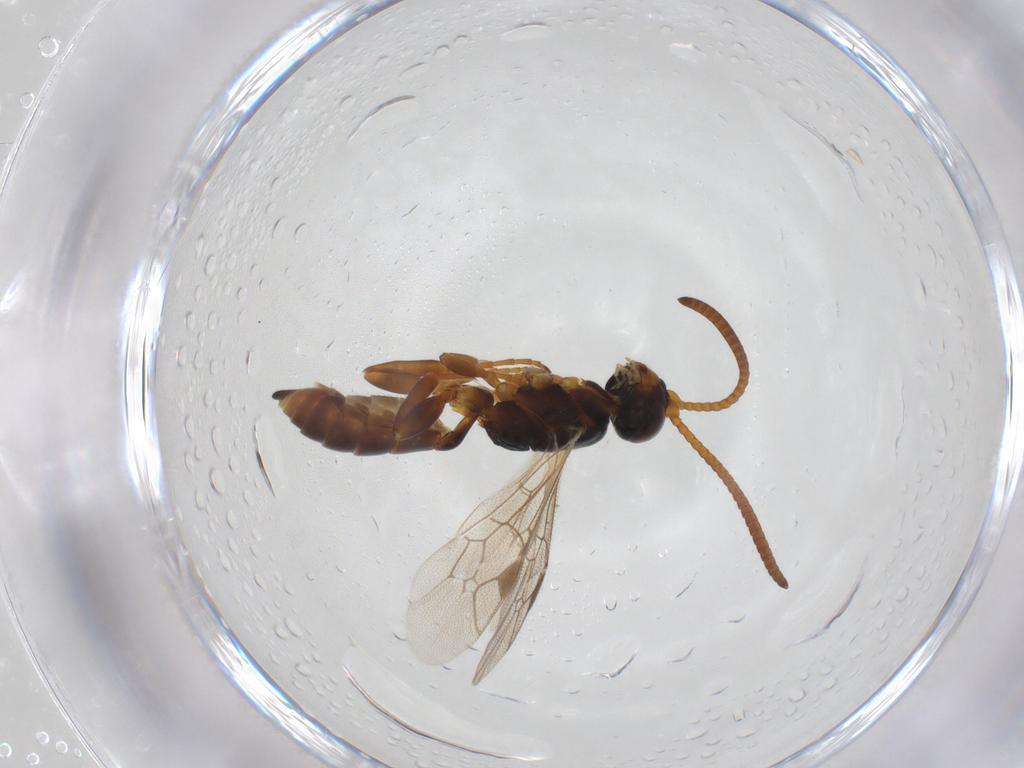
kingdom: Animalia
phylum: Arthropoda
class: Insecta
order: Hymenoptera
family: Ichneumonidae
